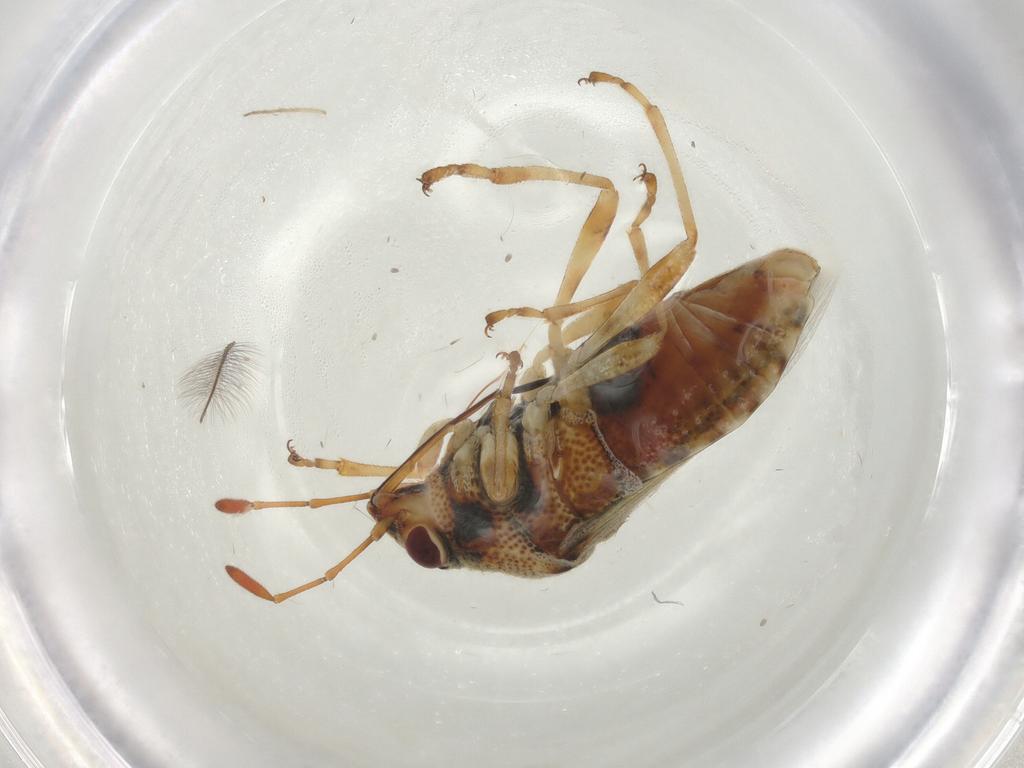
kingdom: Animalia
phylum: Arthropoda
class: Insecta
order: Hemiptera
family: Lygaeidae
